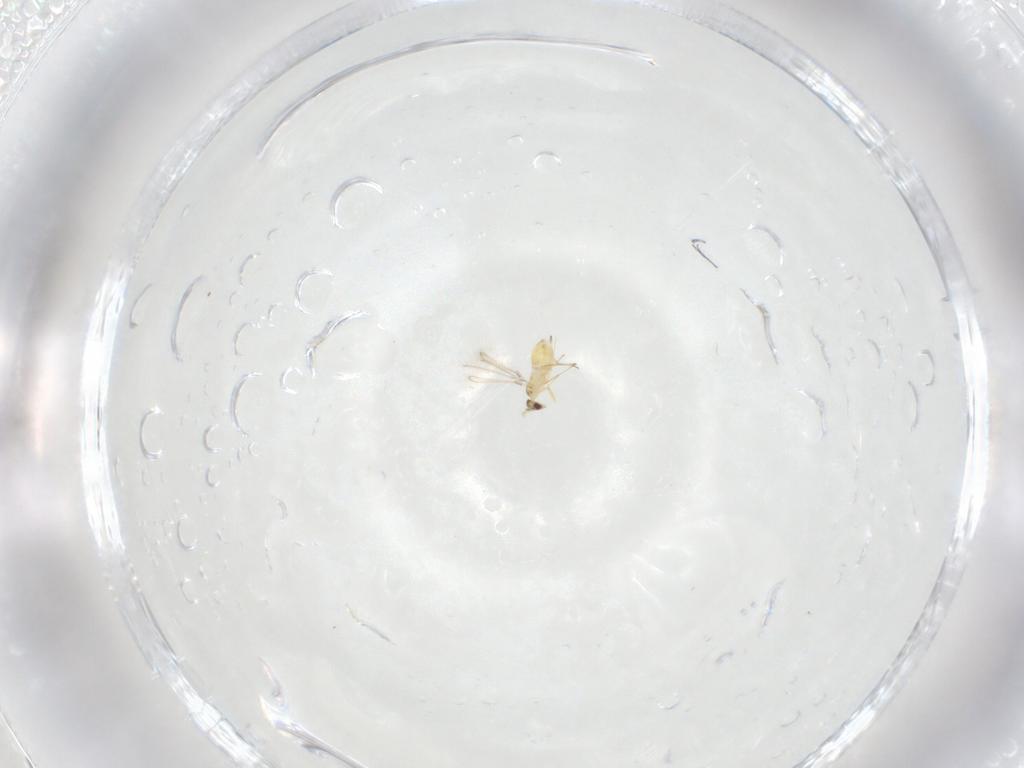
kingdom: Animalia
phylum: Arthropoda
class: Insecta
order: Hymenoptera
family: Mymaridae
